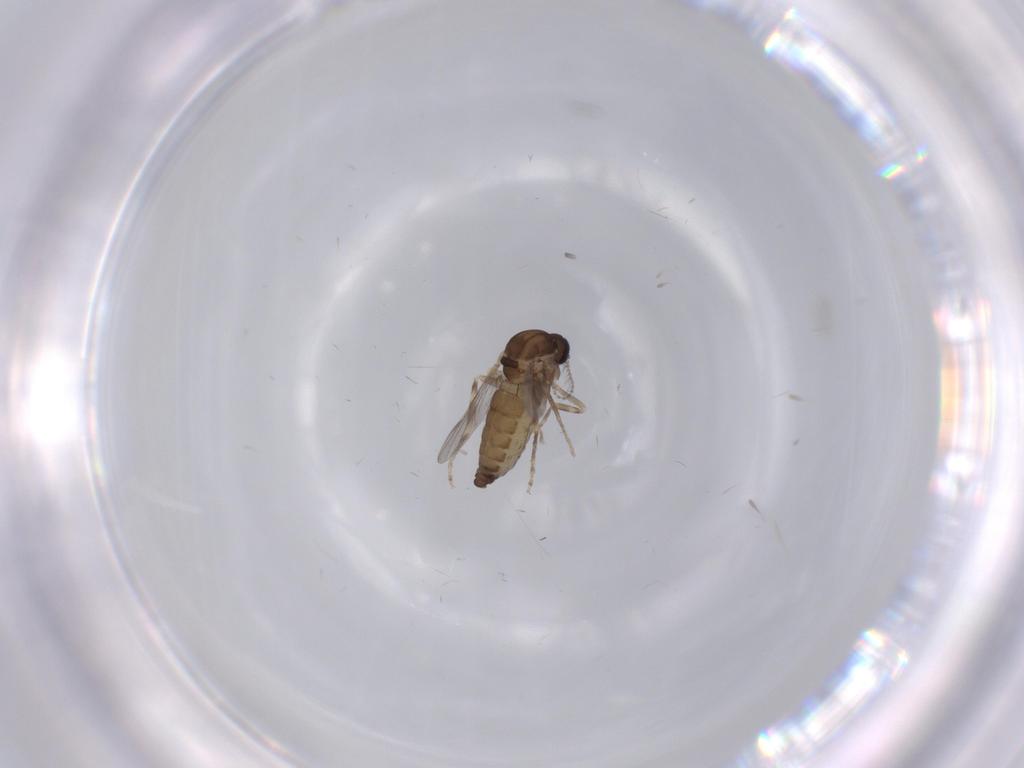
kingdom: Animalia
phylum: Arthropoda
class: Insecta
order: Diptera
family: Ceratopogonidae
